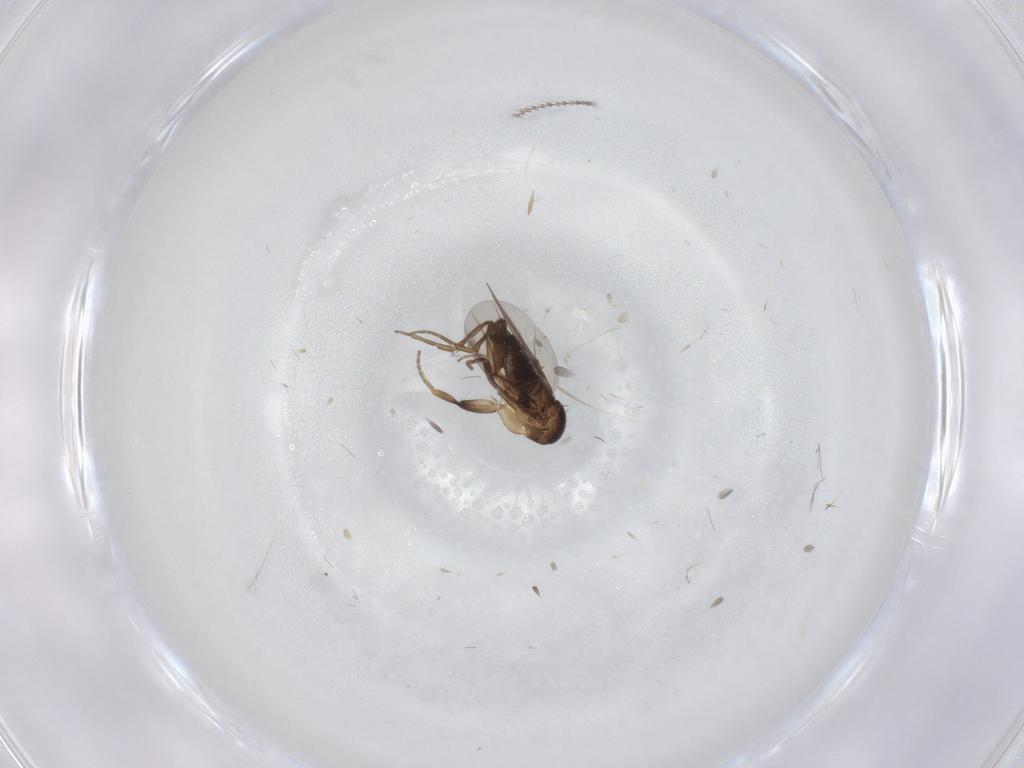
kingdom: Animalia
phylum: Arthropoda
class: Insecta
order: Diptera
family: Phoridae
